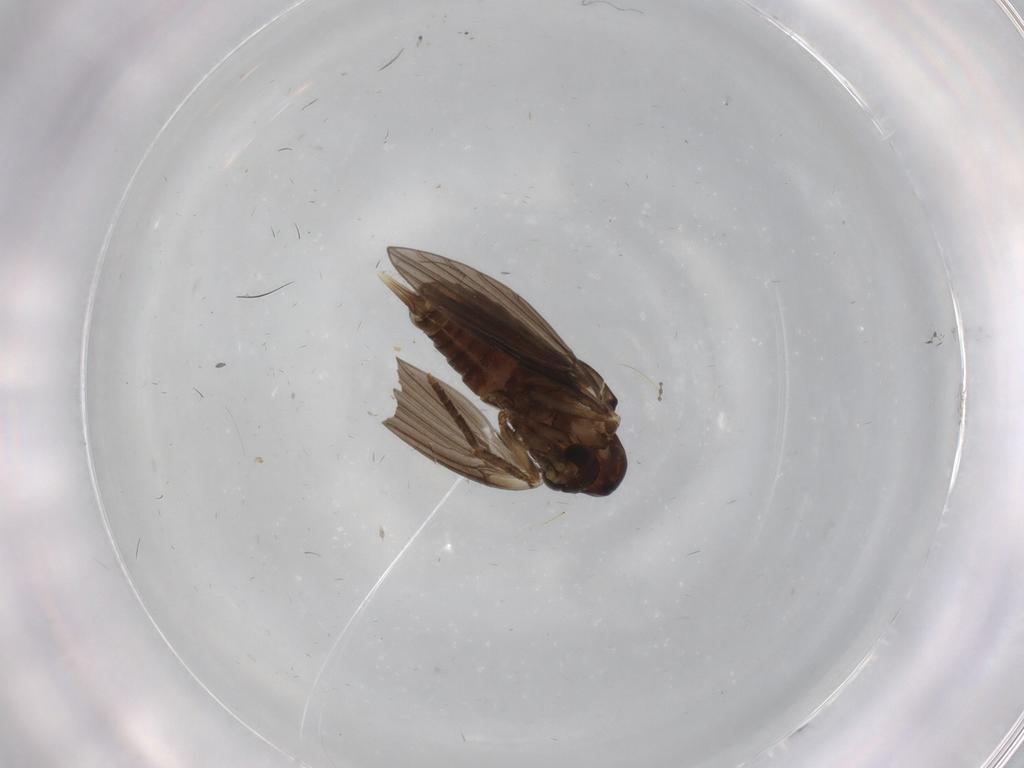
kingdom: Animalia
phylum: Arthropoda
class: Insecta
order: Diptera
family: Psychodidae
